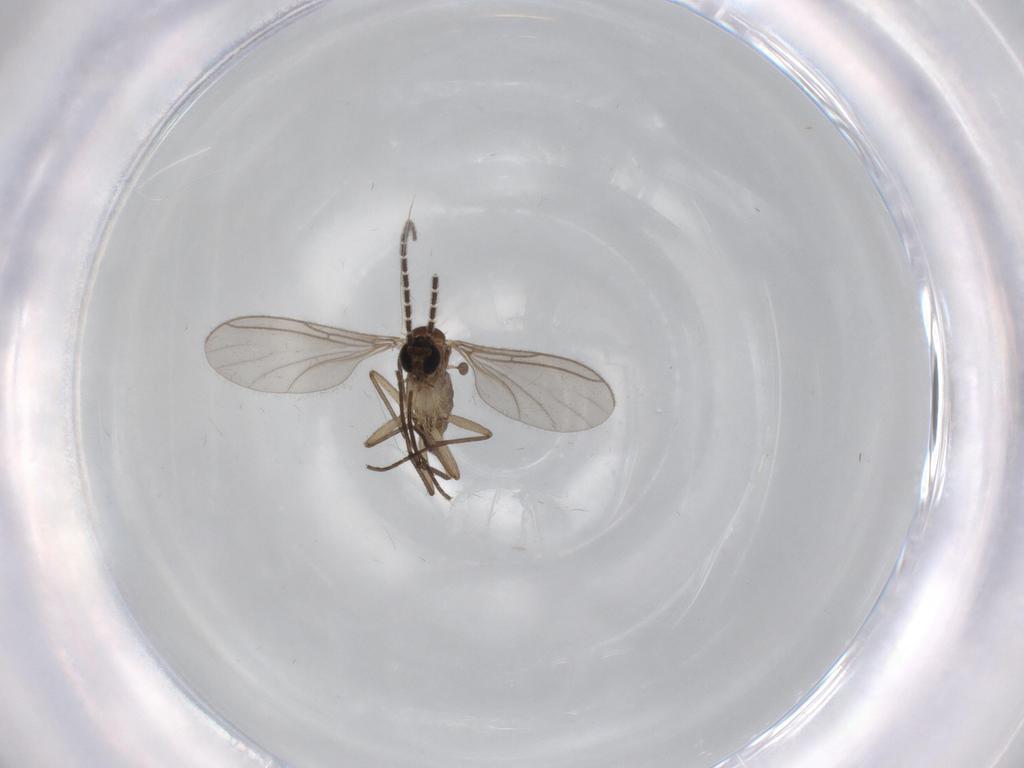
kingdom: Animalia
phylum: Arthropoda
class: Insecta
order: Diptera
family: Sciaridae
